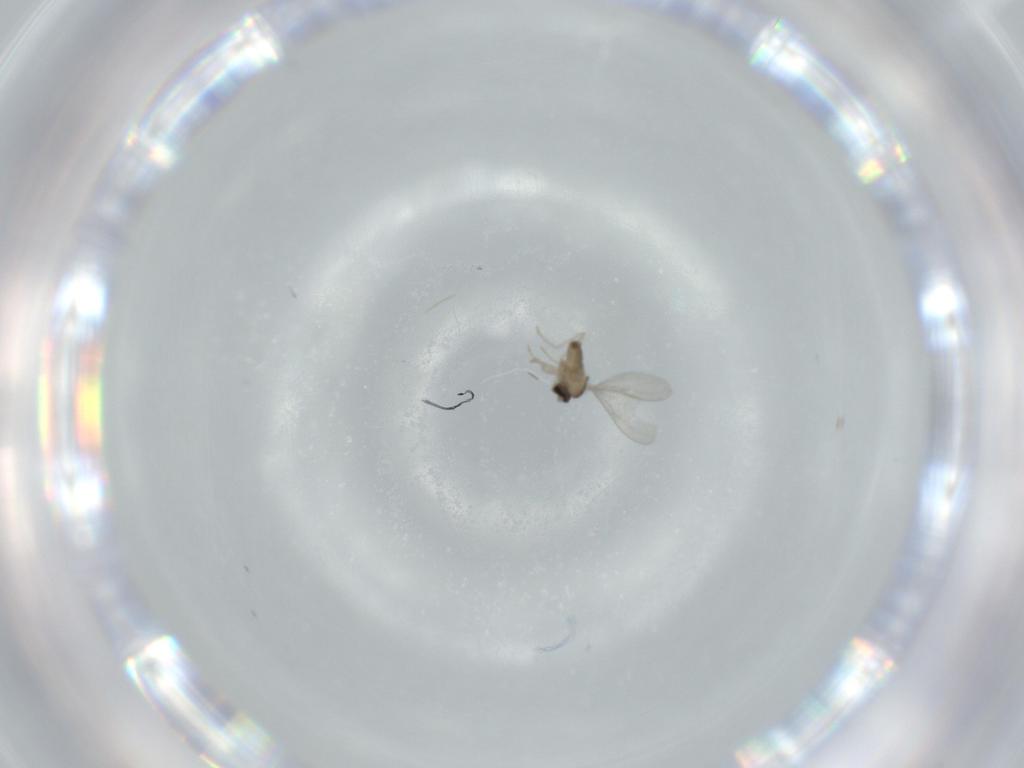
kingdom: Animalia
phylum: Arthropoda
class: Insecta
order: Diptera
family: Cecidomyiidae
